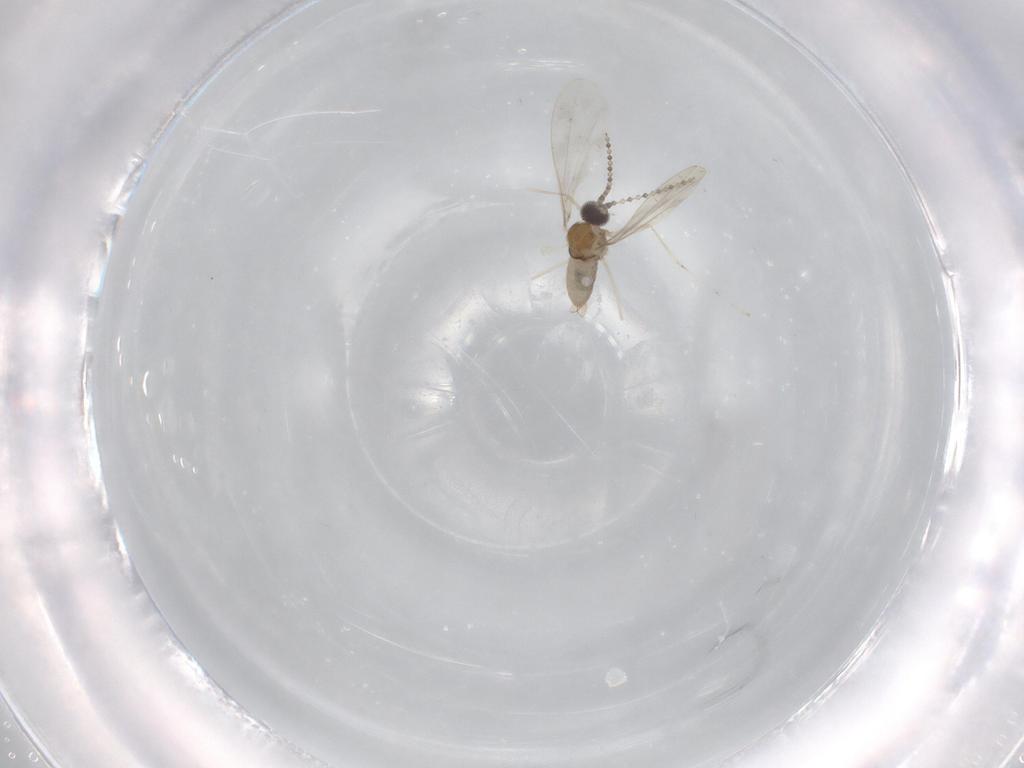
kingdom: Animalia
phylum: Arthropoda
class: Insecta
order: Diptera
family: Cecidomyiidae
